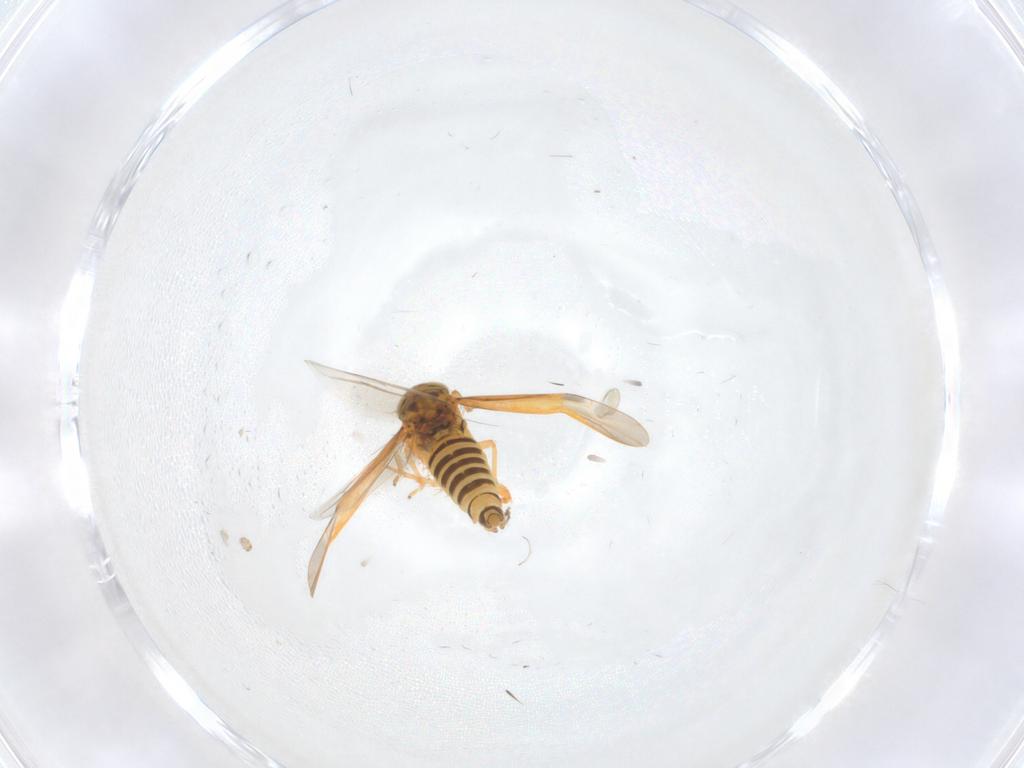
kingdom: Animalia
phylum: Arthropoda
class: Insecta
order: Hemiptera
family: Cicadellidae
